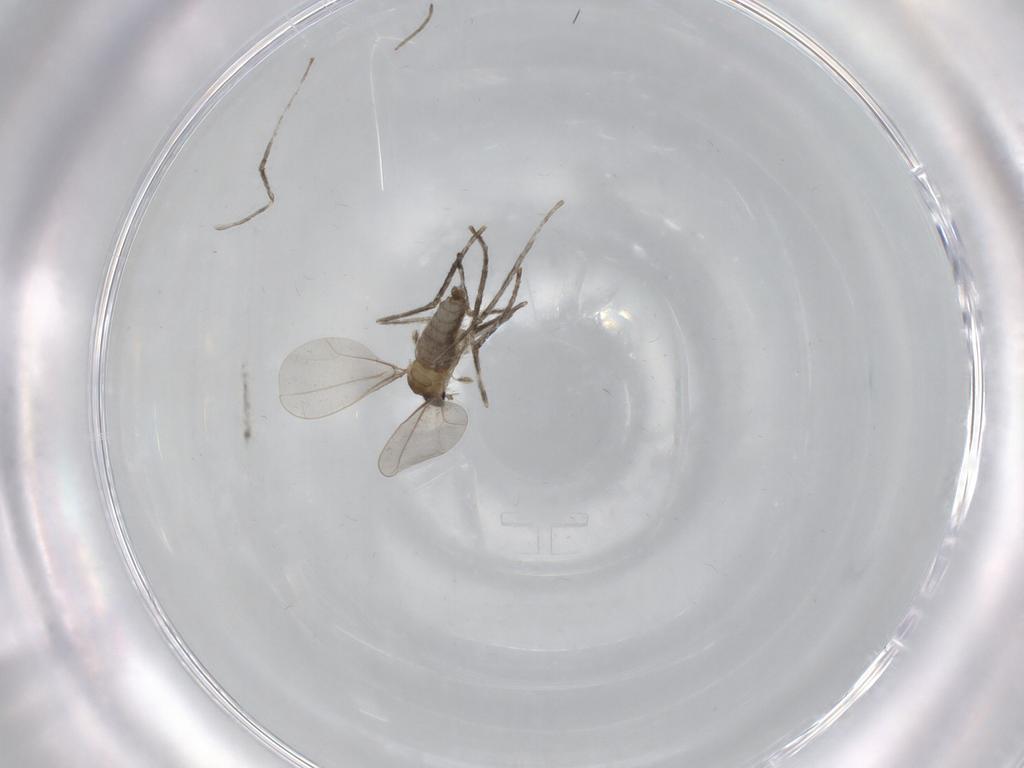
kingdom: Animalia
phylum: Arthropoda
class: Insecta
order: Diptera
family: Cecidomyiidae
